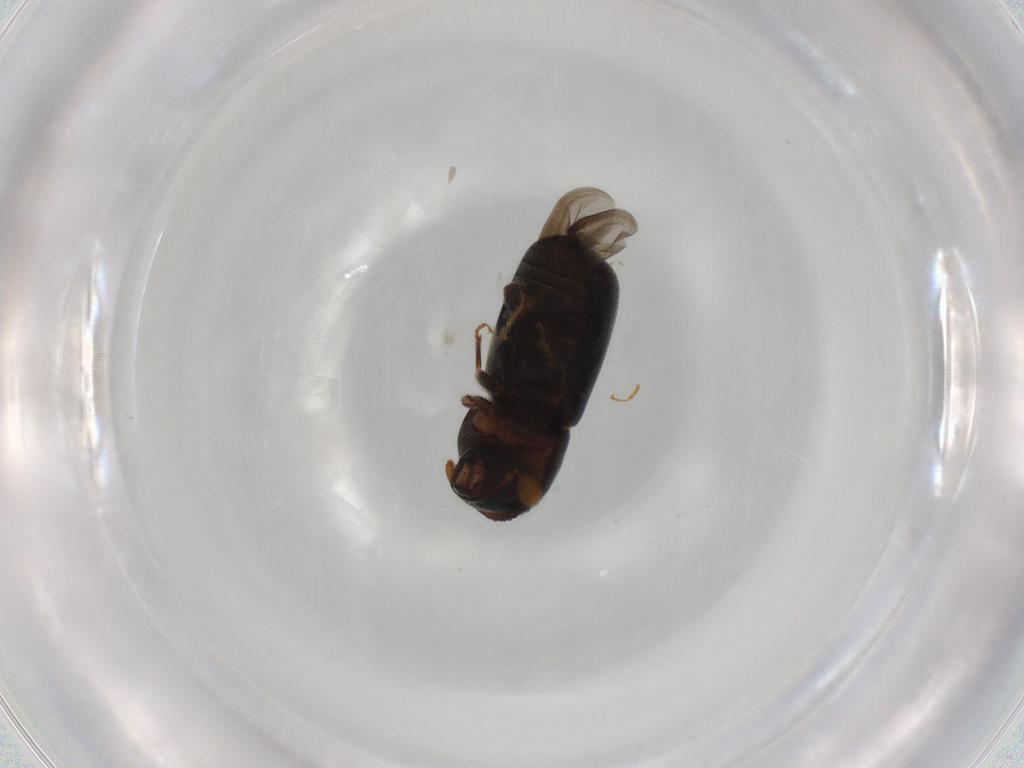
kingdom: Animalia
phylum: Arthropoda
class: Insecta
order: Coleoptera
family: Curculionidae
